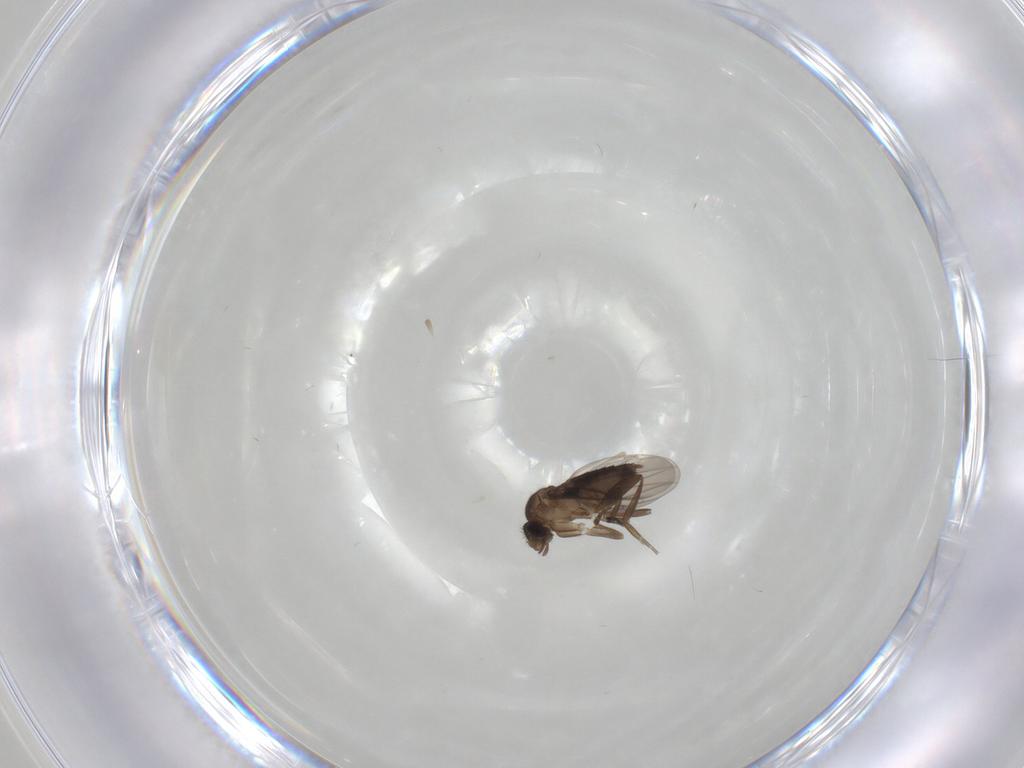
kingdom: Animalia
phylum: Arthropoda
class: Insecta
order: Diptera
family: Phoridae
